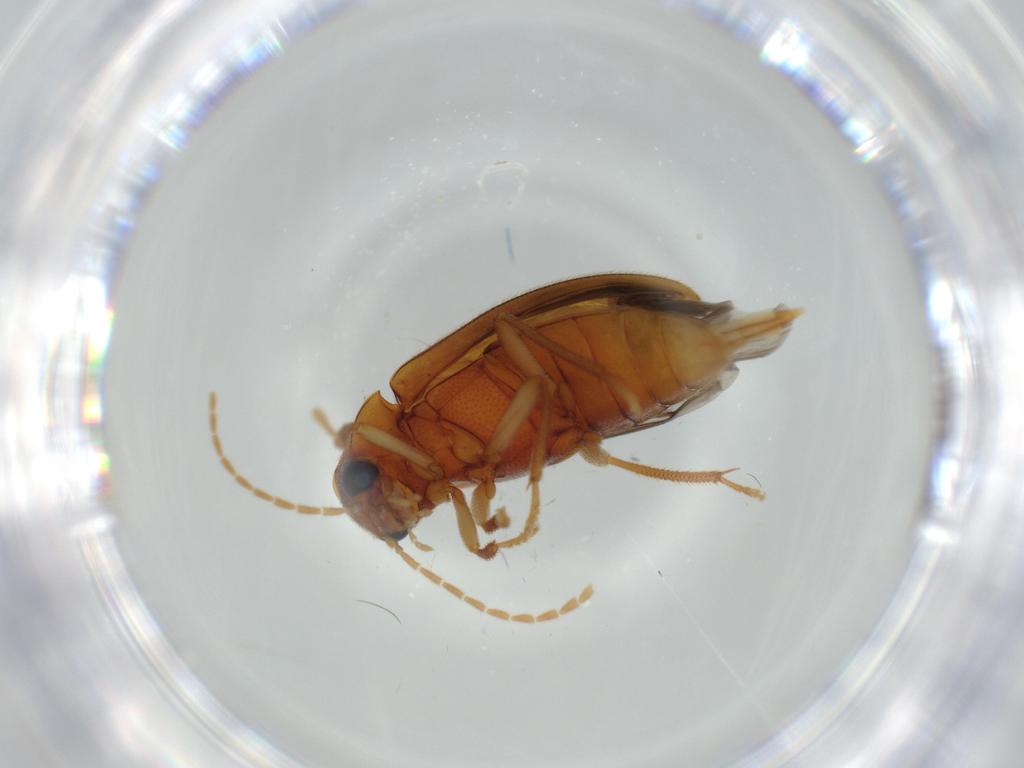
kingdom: Animalia
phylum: Arthropoda
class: Insecta
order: Coleoptera
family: Ptilodactylidae
